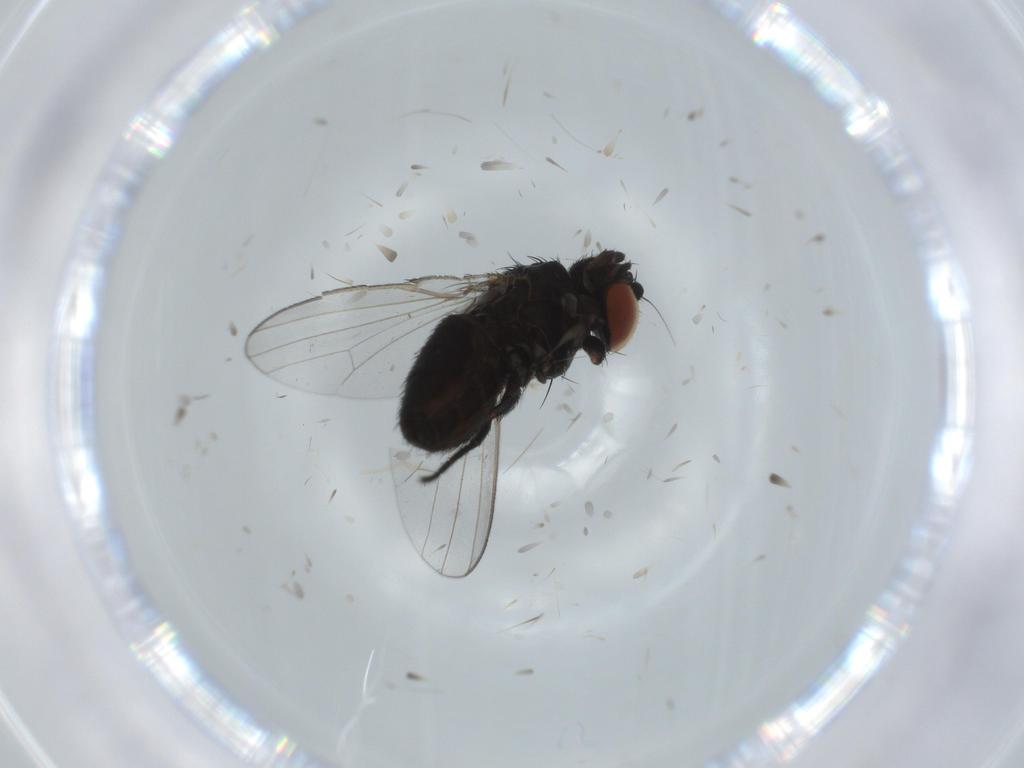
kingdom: Animalia
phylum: Arthropoda
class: Insecta
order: Diptera
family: Milichiidae
